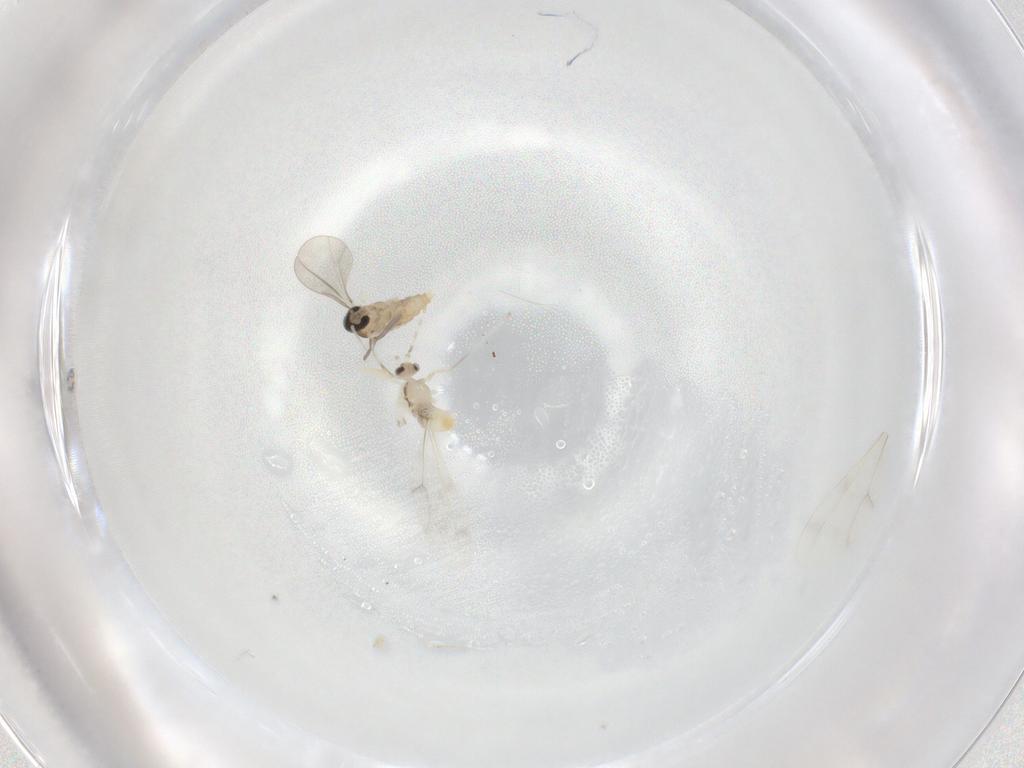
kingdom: Animalia
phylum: Arthropoda
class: Insecta
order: Diptera
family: Cecidomyiidae
